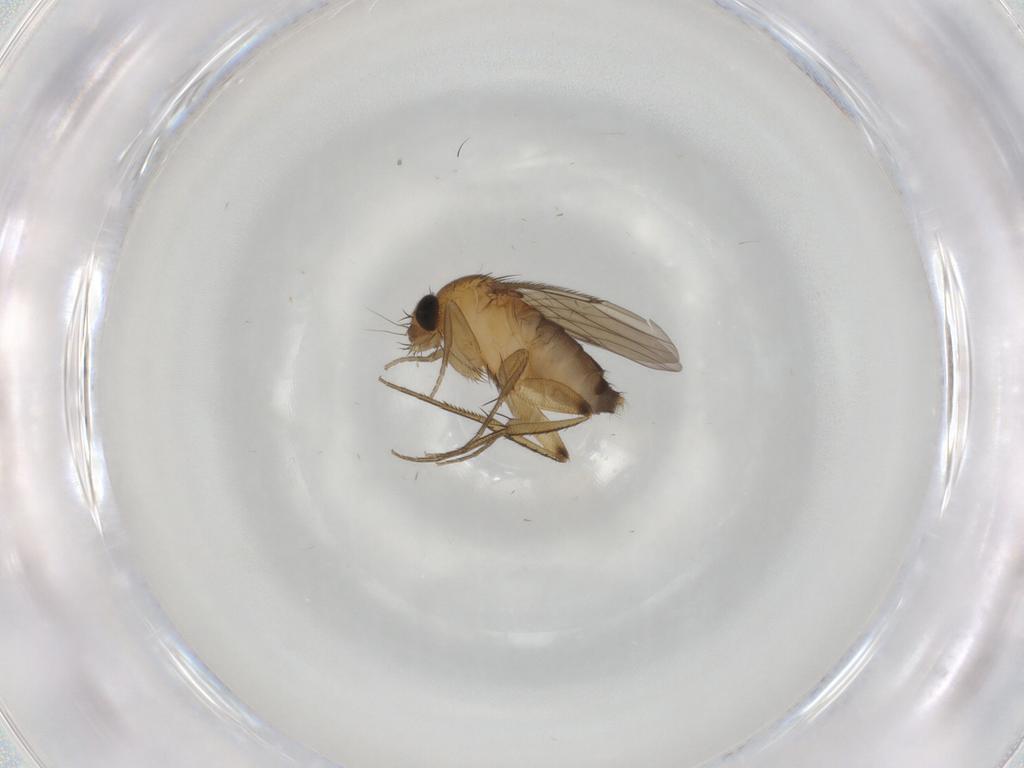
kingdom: Animalia
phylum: Arthropoda
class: Insecta
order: Diptera
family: Phoridae
